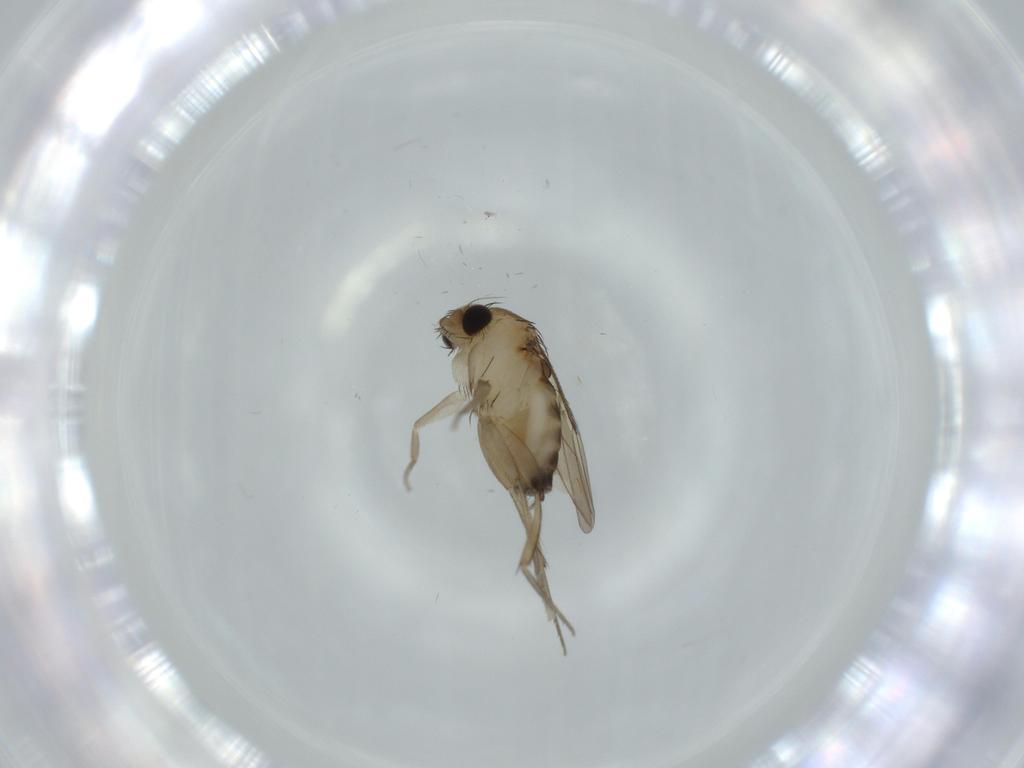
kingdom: Animalia
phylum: Arthropoda
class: Insecta
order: Diptera
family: Phoridae
